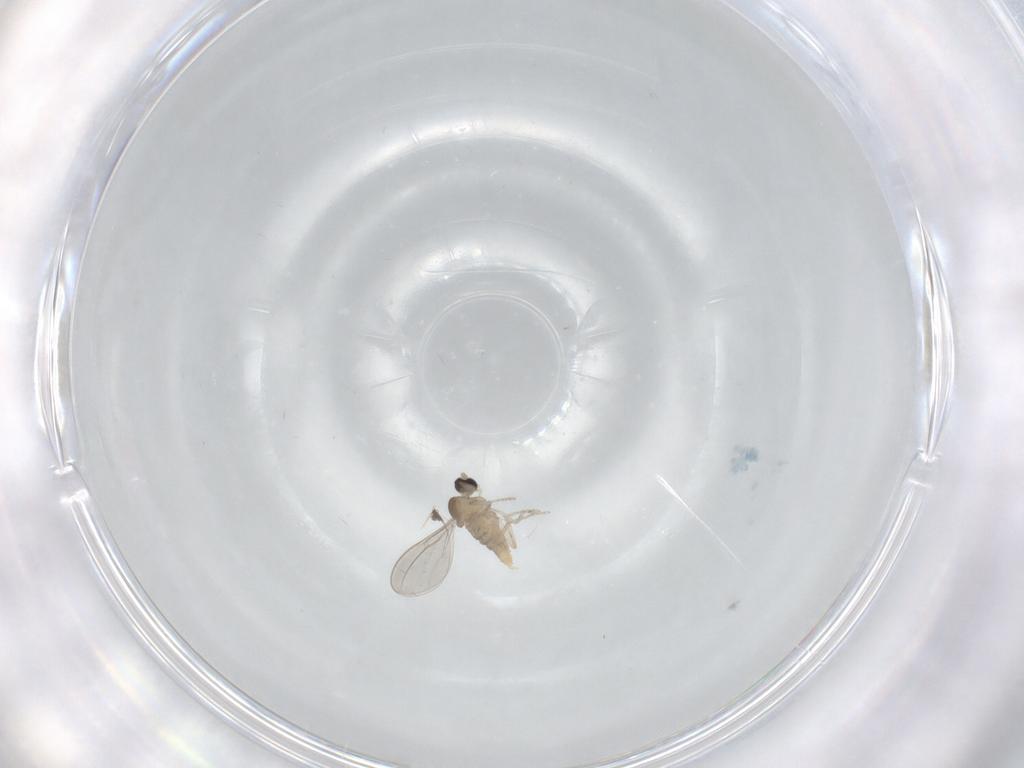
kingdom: Animalia
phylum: Arthropoda
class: Insecta
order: Diptera
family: Cecidomyiidae
